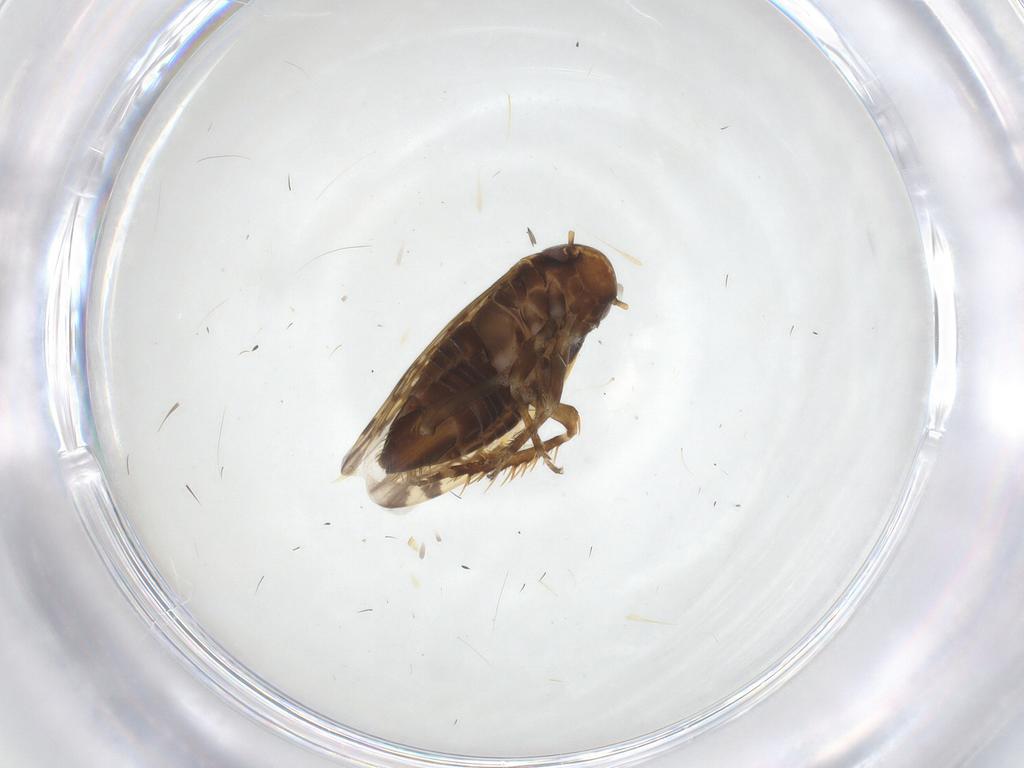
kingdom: Animalia
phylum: Arthropoda
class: Insecta
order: Hemiptera
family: Cicadellidae
